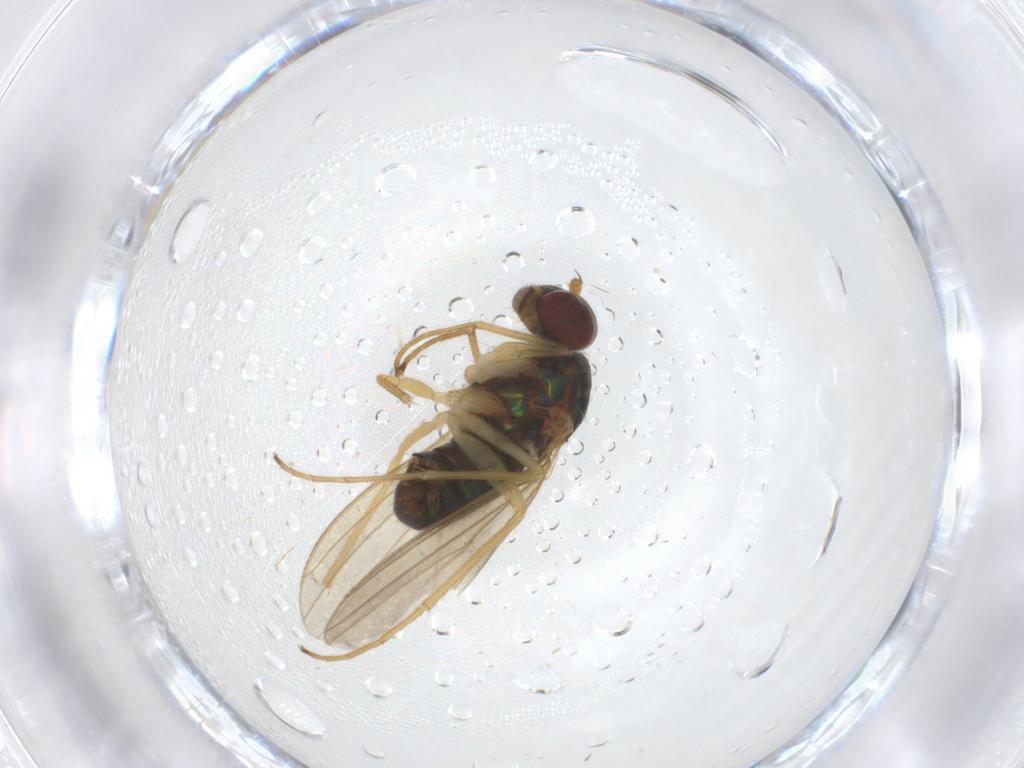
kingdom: Animalia
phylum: Arthropoda
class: Insecta
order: Diptera
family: Dolichopodidae
